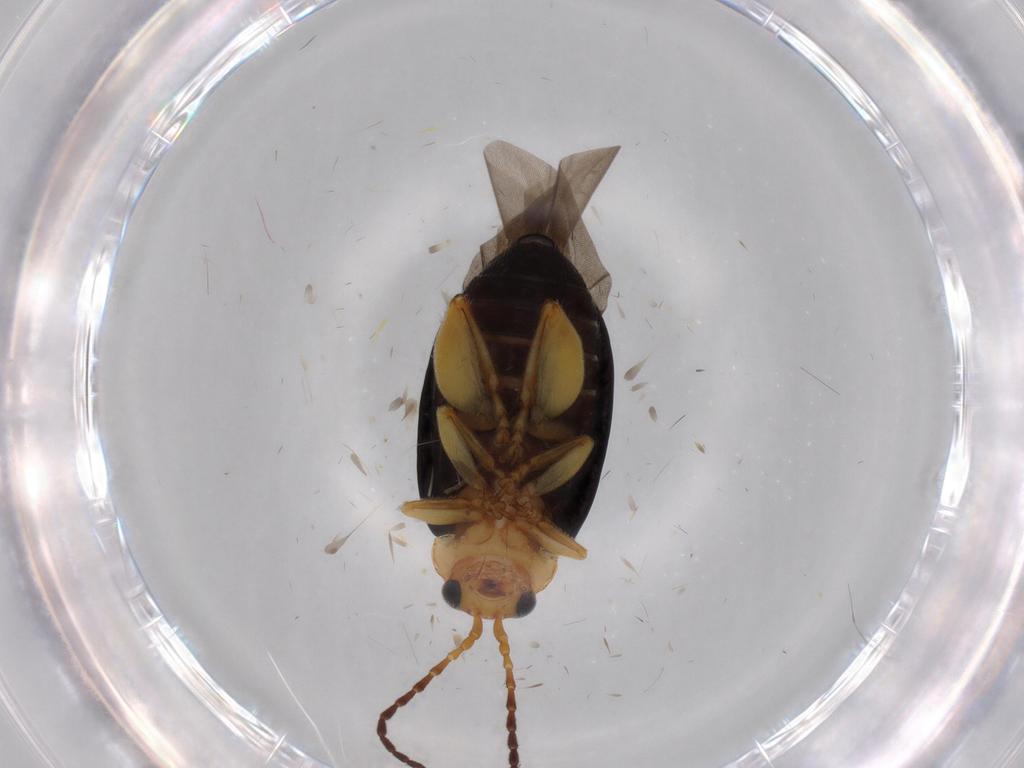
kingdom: Animalia
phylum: Arthropoda
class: Insecta
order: Coleoptera
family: Chrysomelidae
